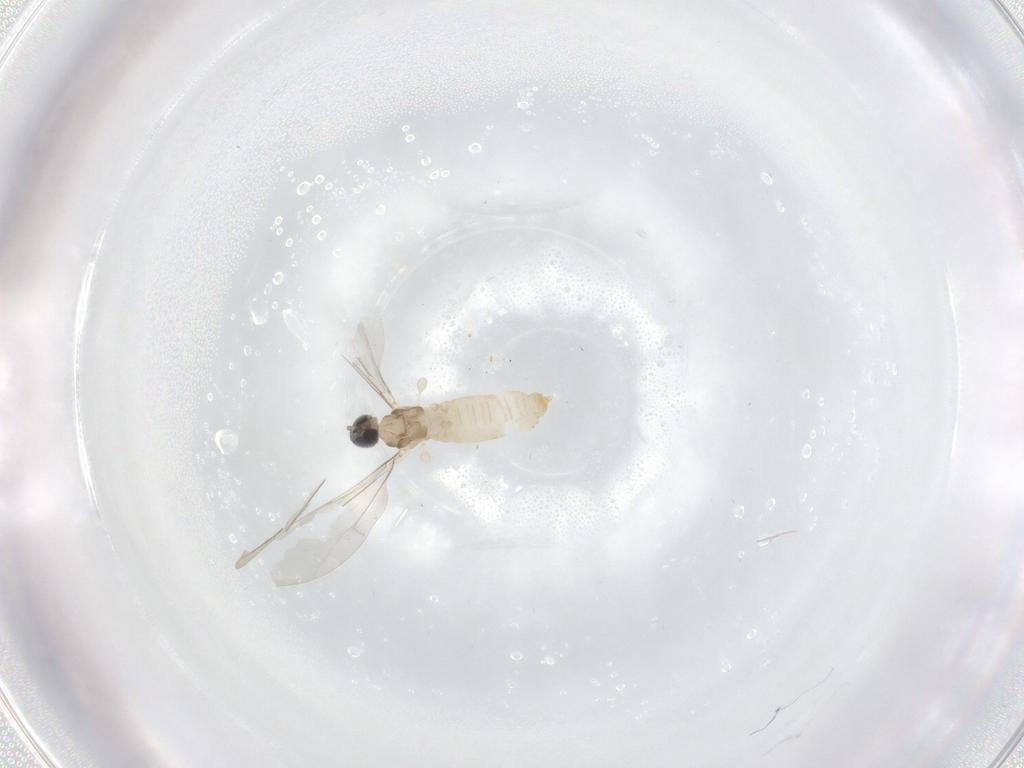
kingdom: Animalia
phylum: Arthropoda
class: Insecta
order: Diptera
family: Cecidomyiidae
